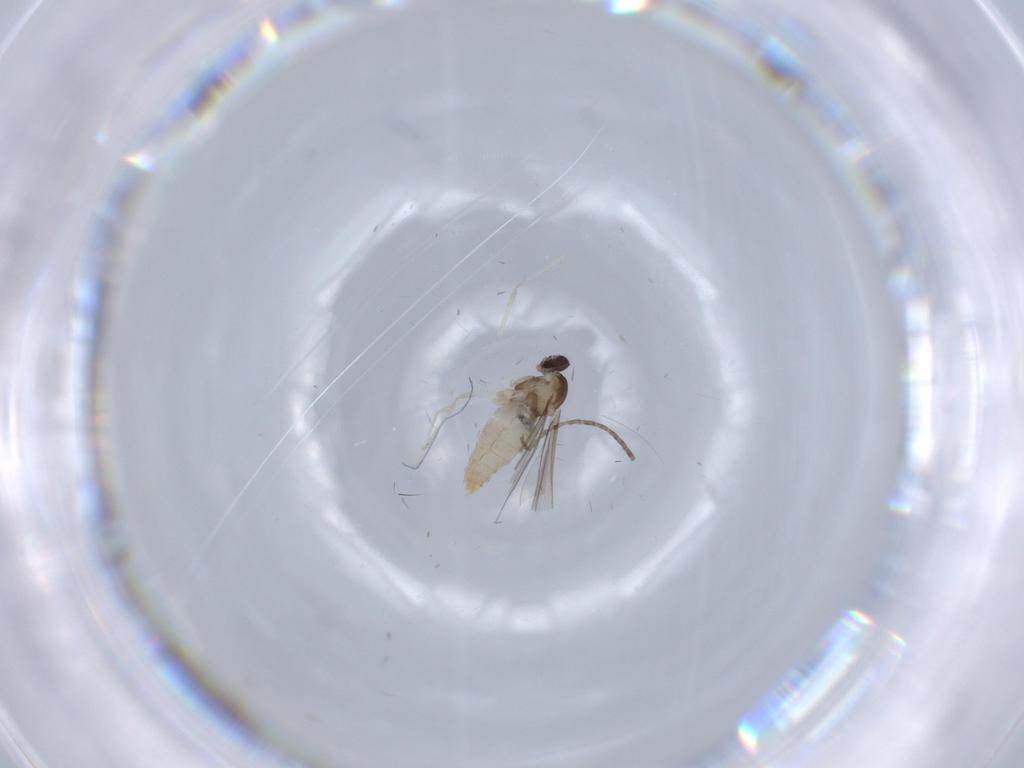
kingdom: Animalia
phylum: Arthropoda
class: Insecta
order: Diptera
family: Cecidomyiidae
